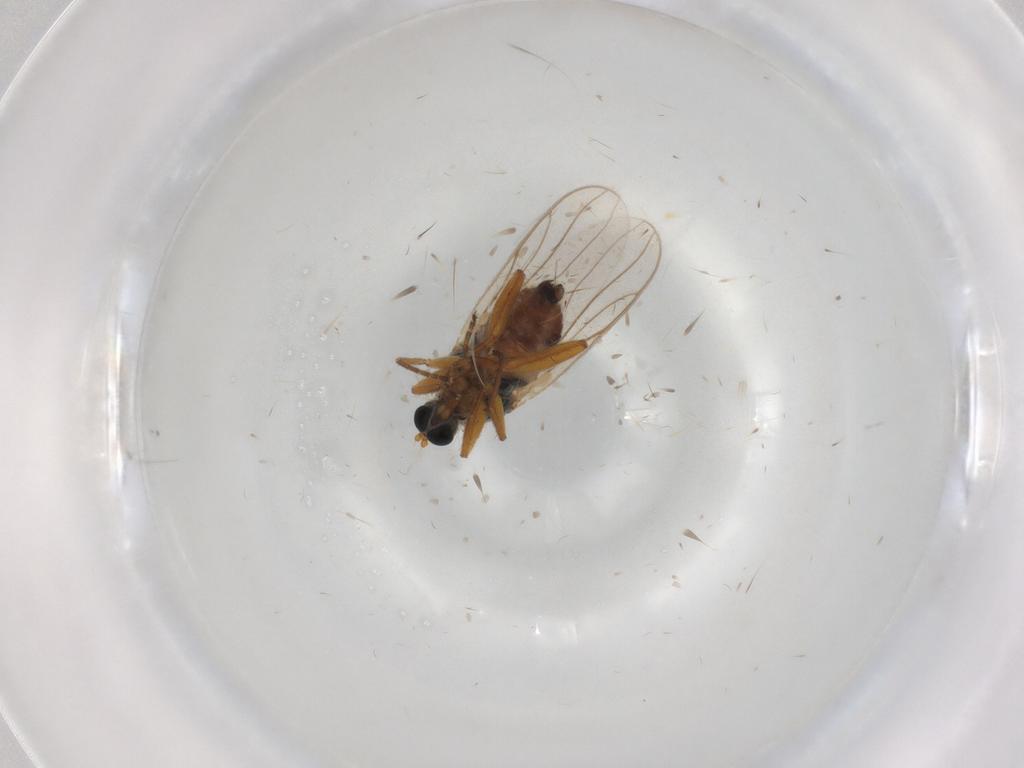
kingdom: Animalia
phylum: Arthropoda
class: Insecta
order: Diptera
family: Hybotidae
